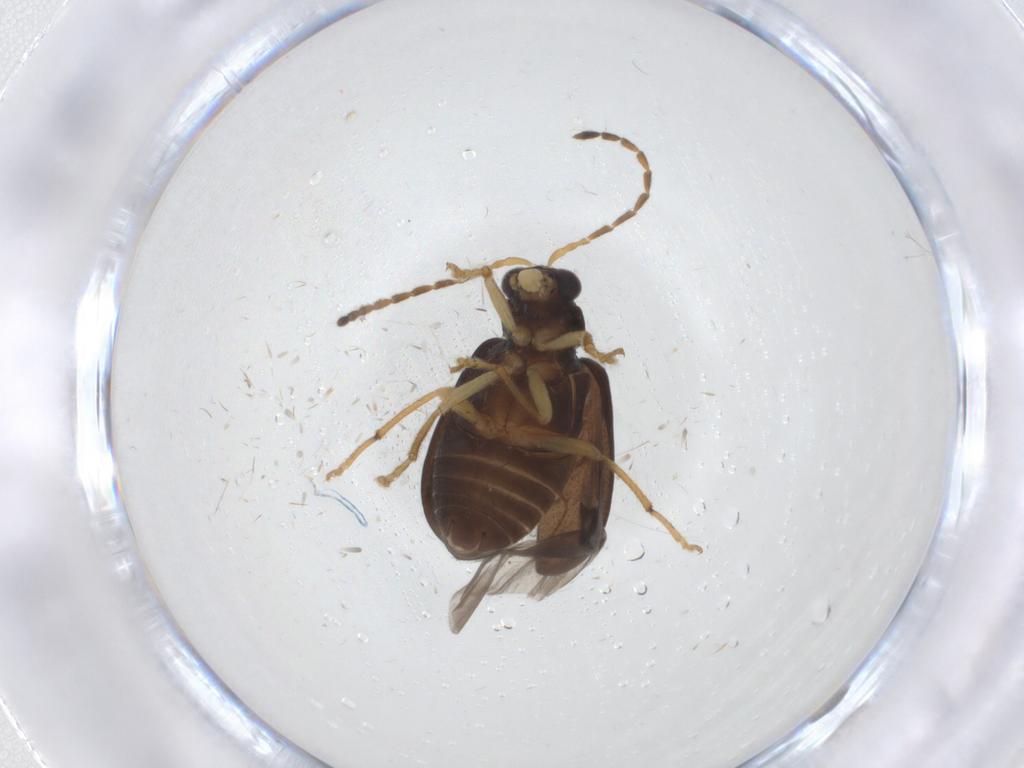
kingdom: Animalia
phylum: Arthropoda
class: Insecta
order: Coleoptera
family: Chrysomelidae
